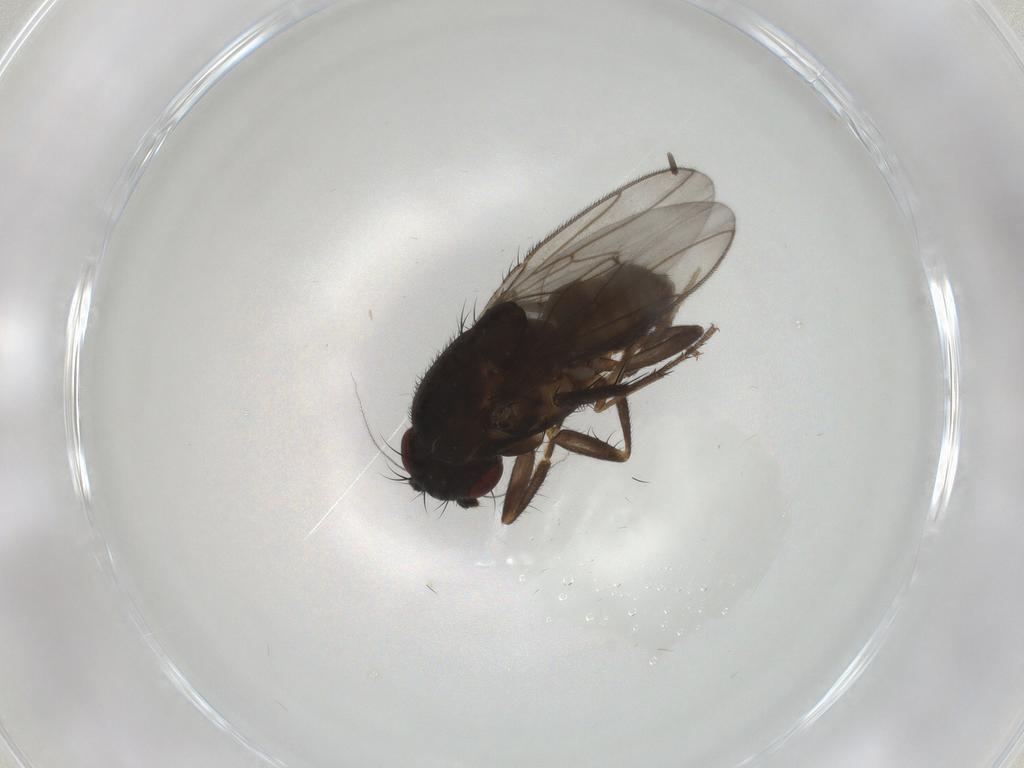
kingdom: Animalia
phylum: Arthropoda
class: Insecta
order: Diptera
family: Sphaeroceridae
